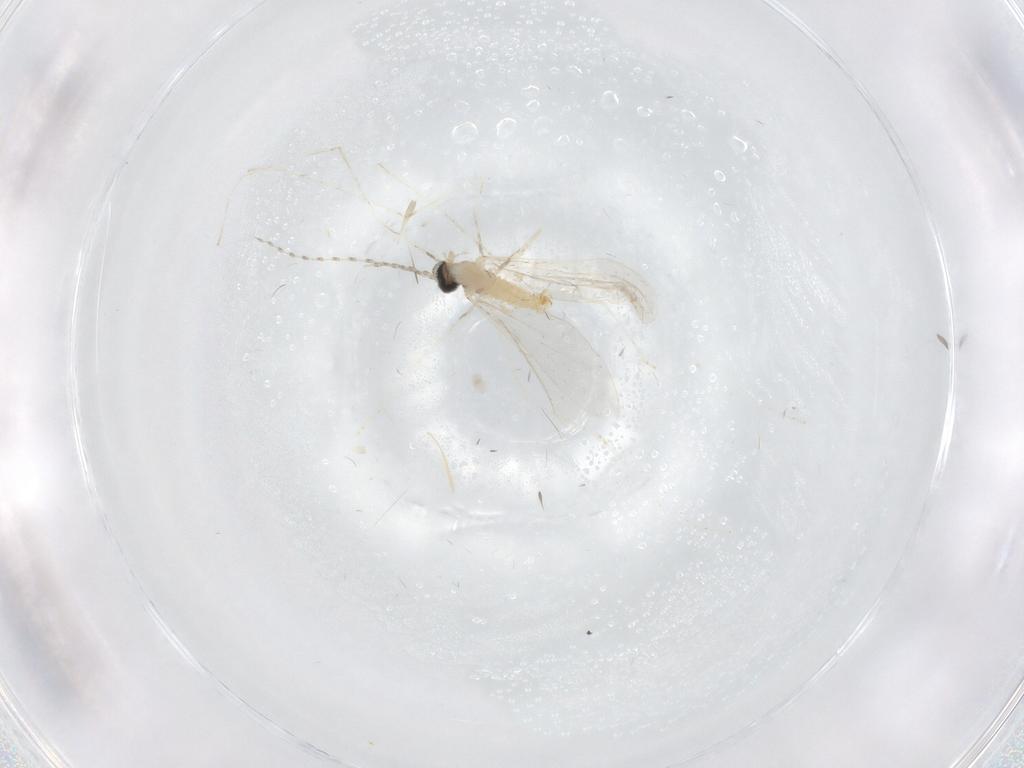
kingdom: Animalia
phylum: Arthropoda
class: Insecta
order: Diptera
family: Cecidomyiidae
